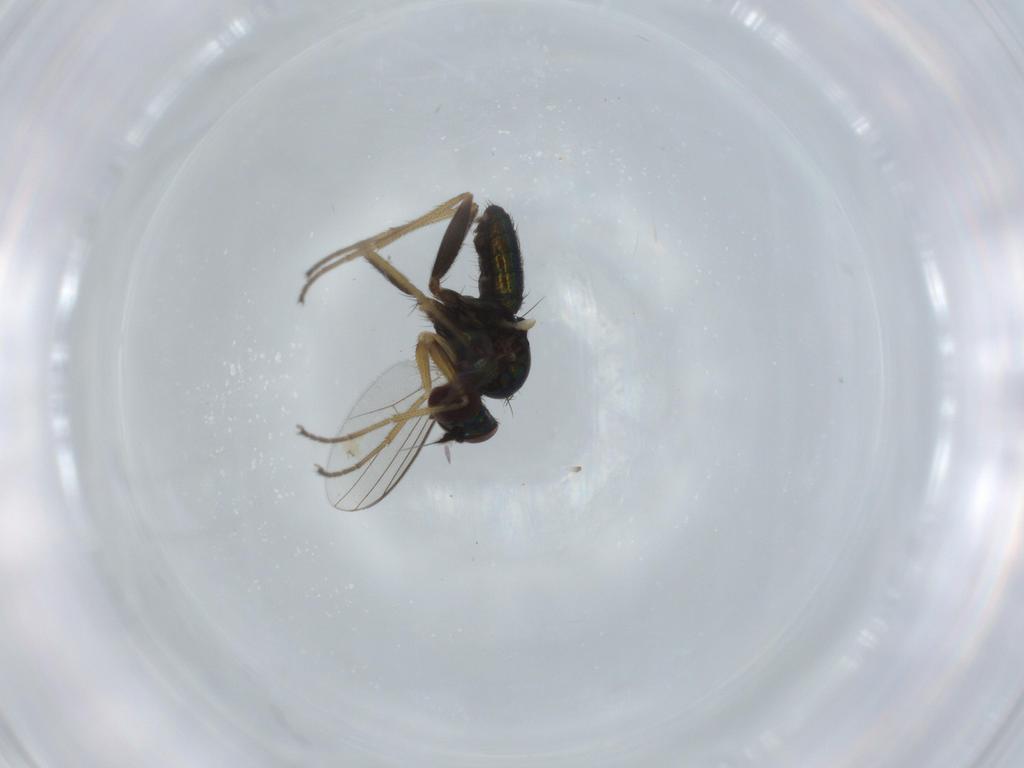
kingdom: Animalia
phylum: Arthropoda
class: Insecta
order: Diptera
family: Dolichopodidae
